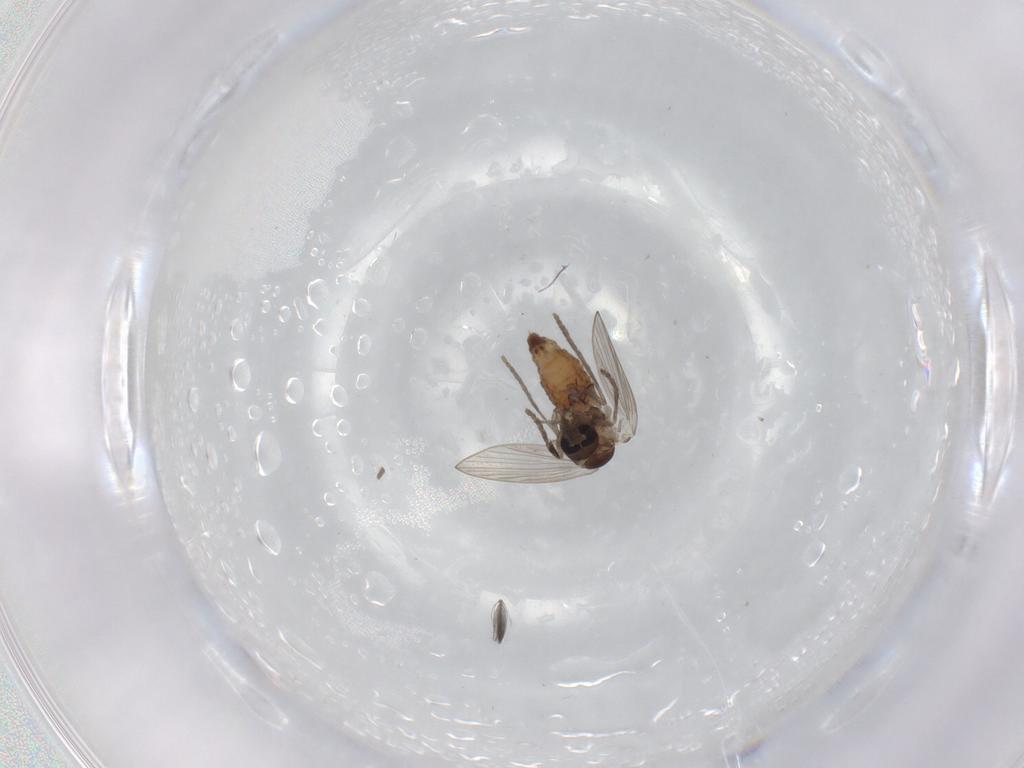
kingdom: Animalia
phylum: Arthropoda
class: Insecta
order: Diptera
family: Psychodidae
